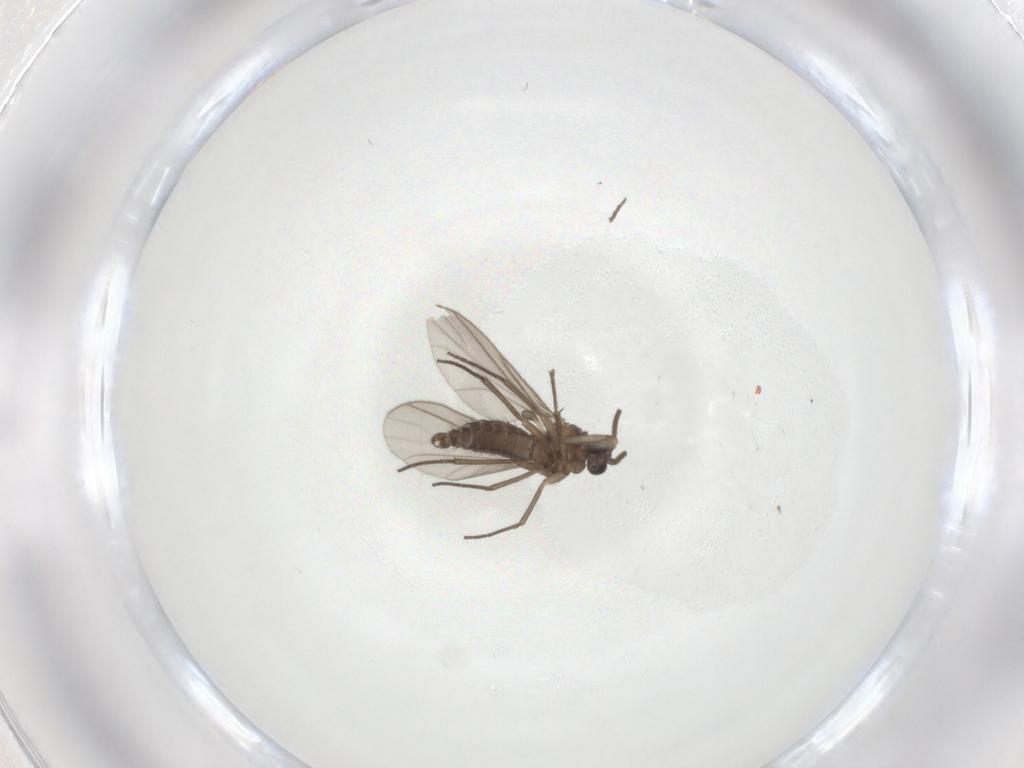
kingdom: Animalia
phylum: Arthropoda
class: Insecta
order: Diptera
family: Sciaridae
